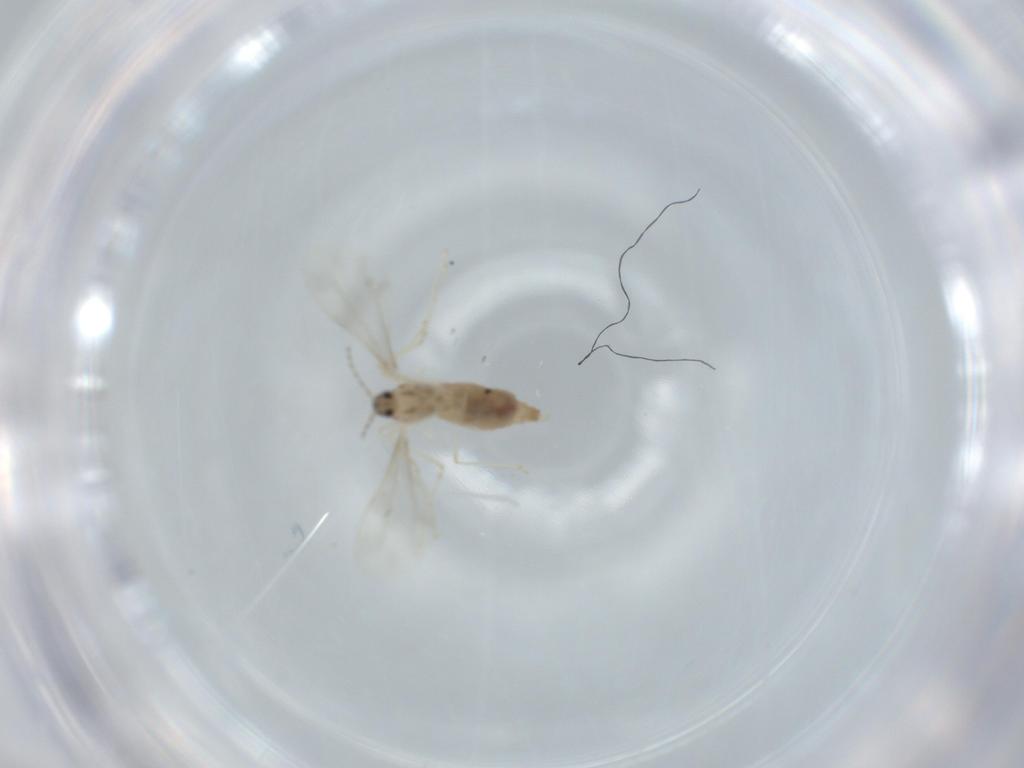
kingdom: Animalia
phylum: Arthropoda
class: Insecta
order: Diptera
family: Cecidomyiidae
